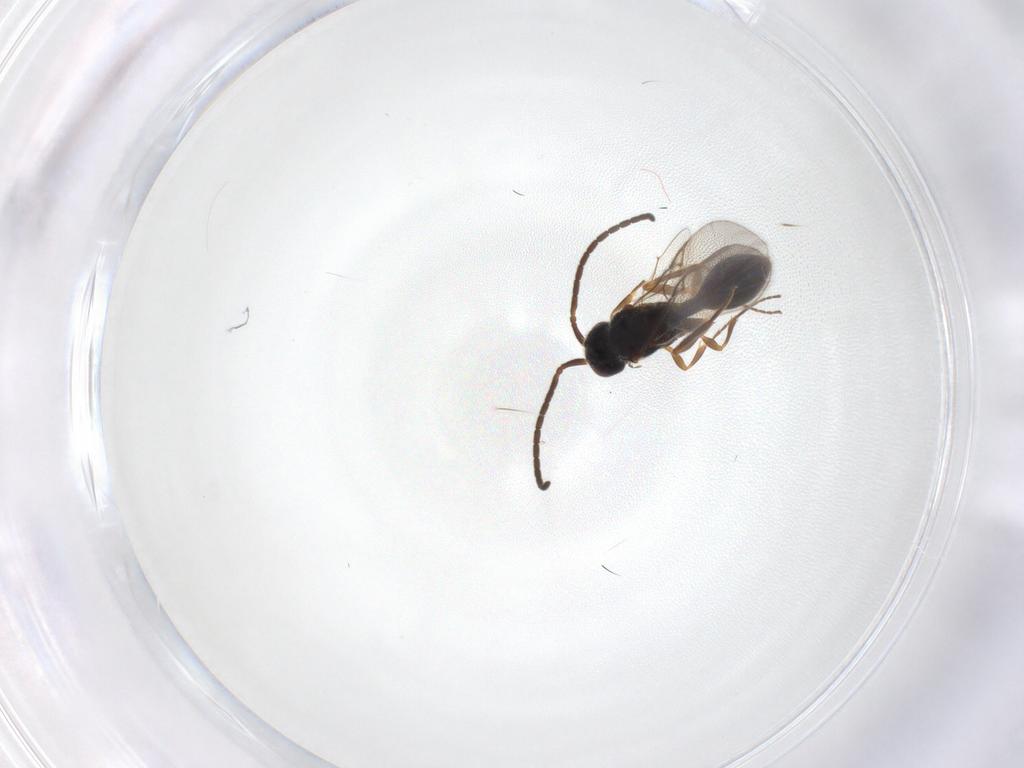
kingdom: Animalia
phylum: Arthropoda
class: Insecta
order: Hymenoptera
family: Diapriidae
